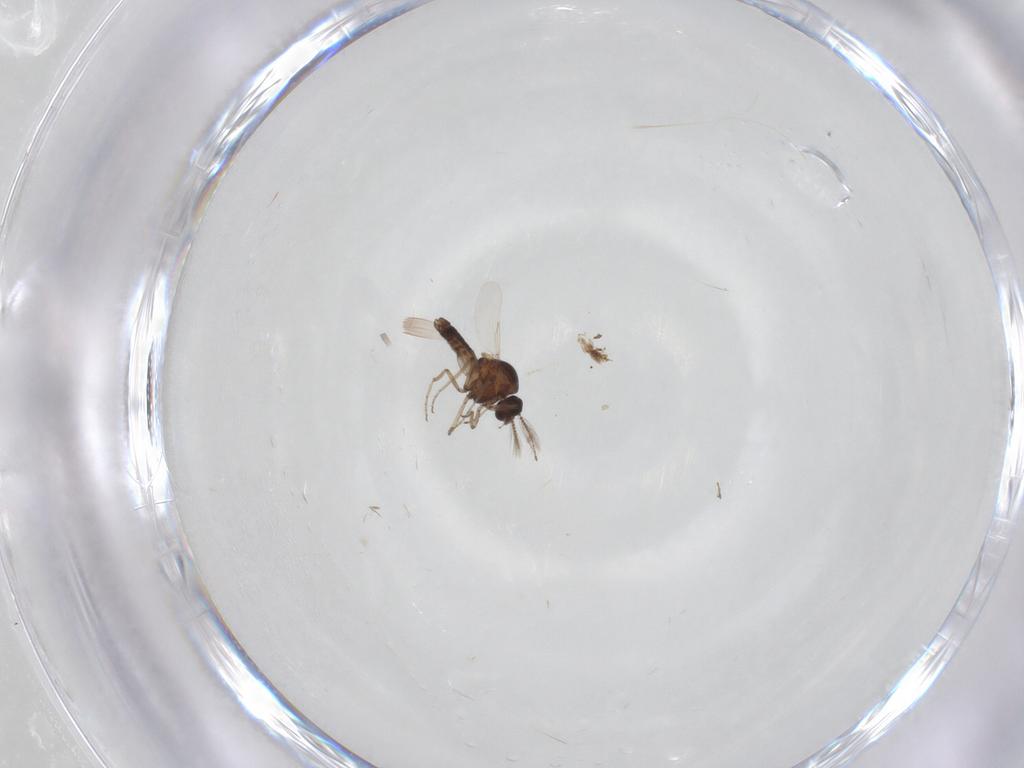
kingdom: Animalia
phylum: Arthropoda
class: Insecta
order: Diptera
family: Ceratopogonidae
